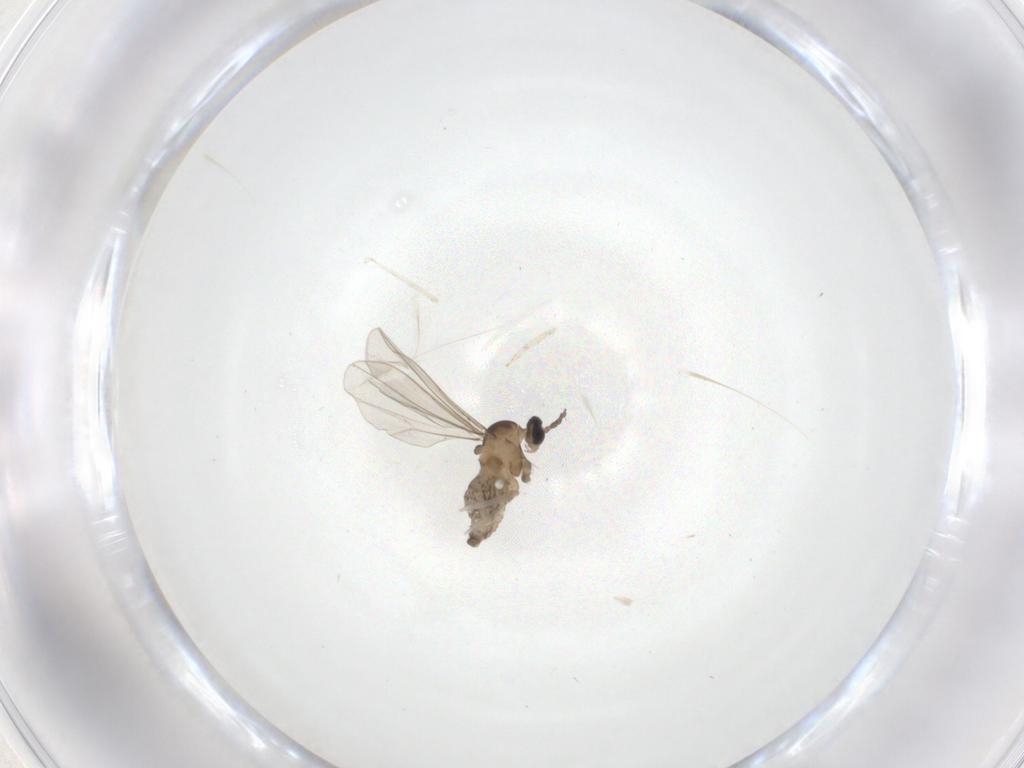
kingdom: Animalia
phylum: Arthropoda
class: Insecta
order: Diptera
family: Cecidomyiidae
